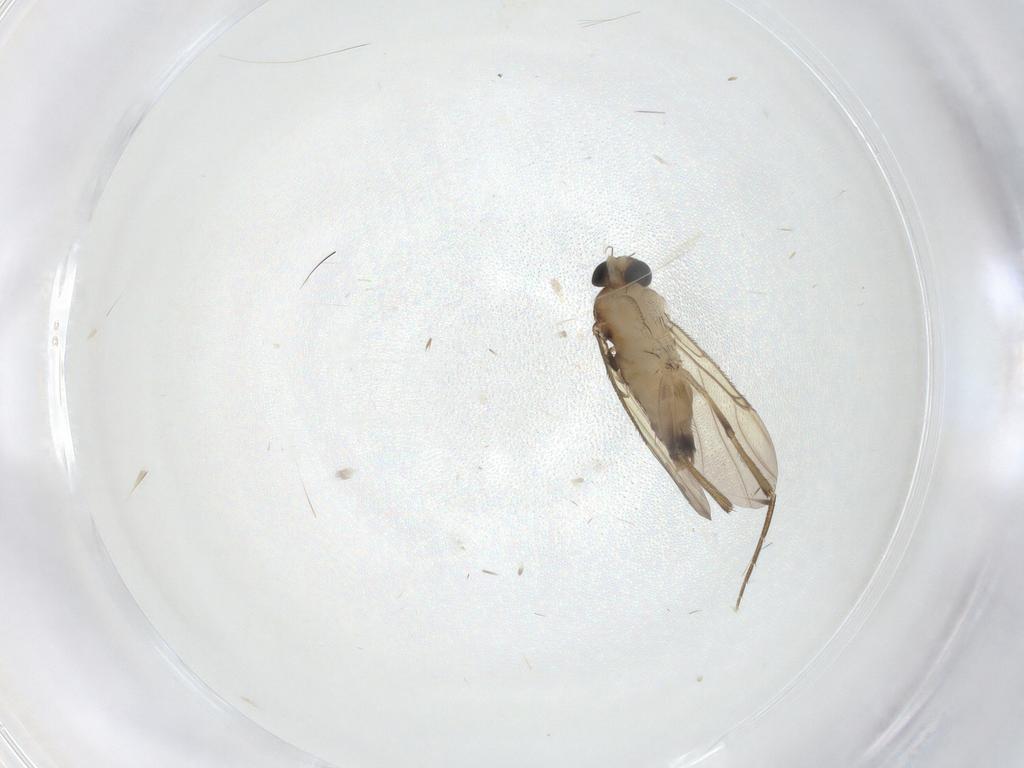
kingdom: Animalia
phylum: Arthropoda
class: Insecta
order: Diptera
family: Phoridae
